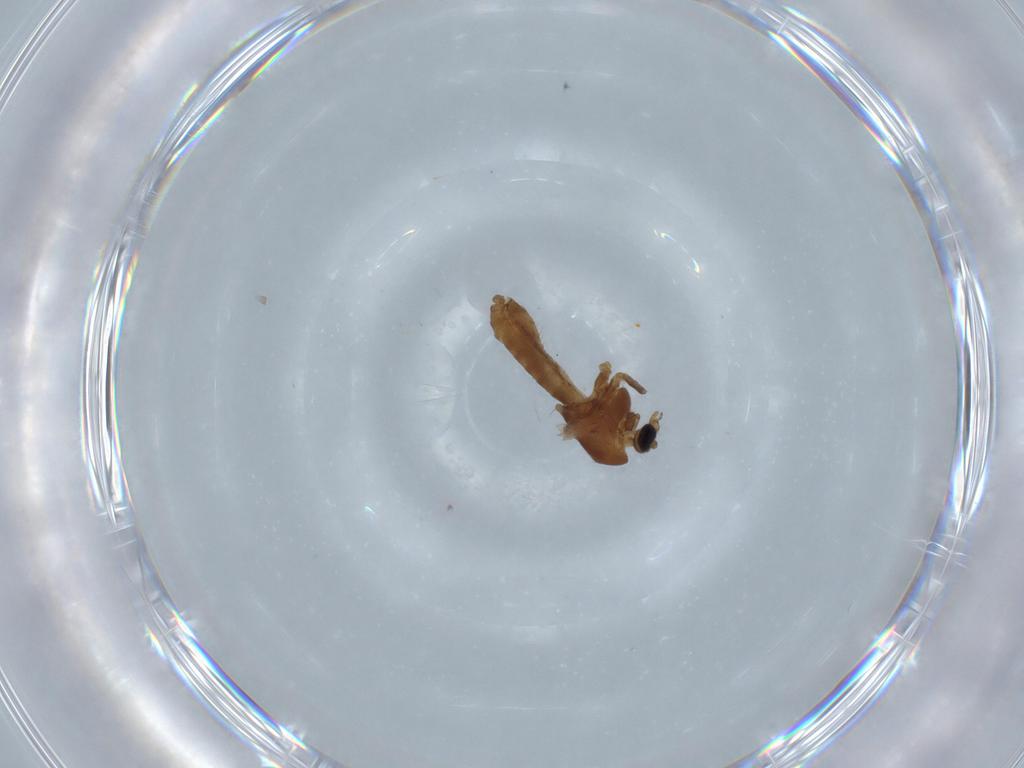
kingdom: Animalia
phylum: Arthropoda
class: Insecta
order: Diptera
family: Chironomidae
